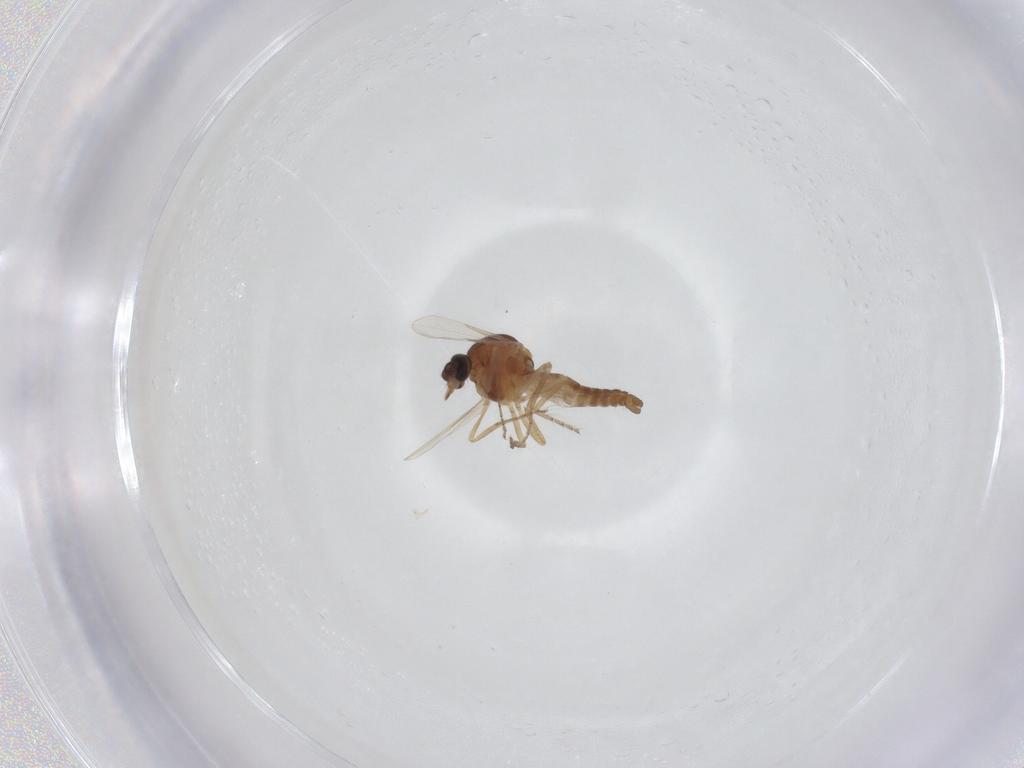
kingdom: Animalia
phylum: Arthropoda
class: Insecta
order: Diptera
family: Ceratopogonidae
